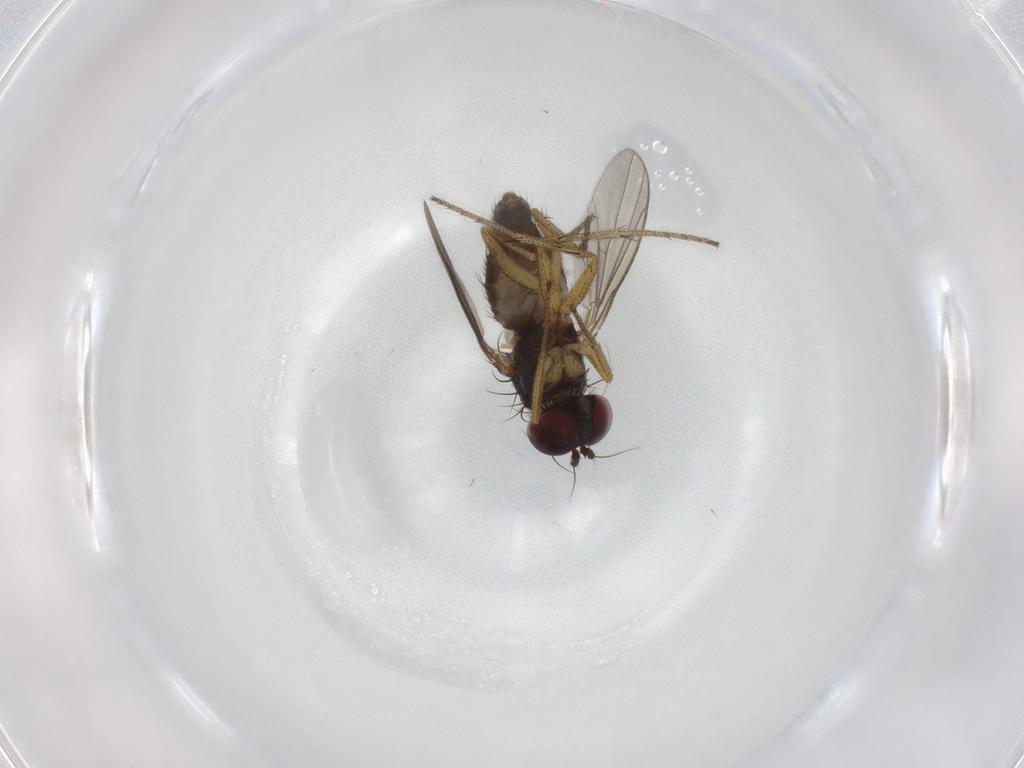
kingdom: Animalia
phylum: Arthropoda
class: Insecta
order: Diptera
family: Dolichopodidae
